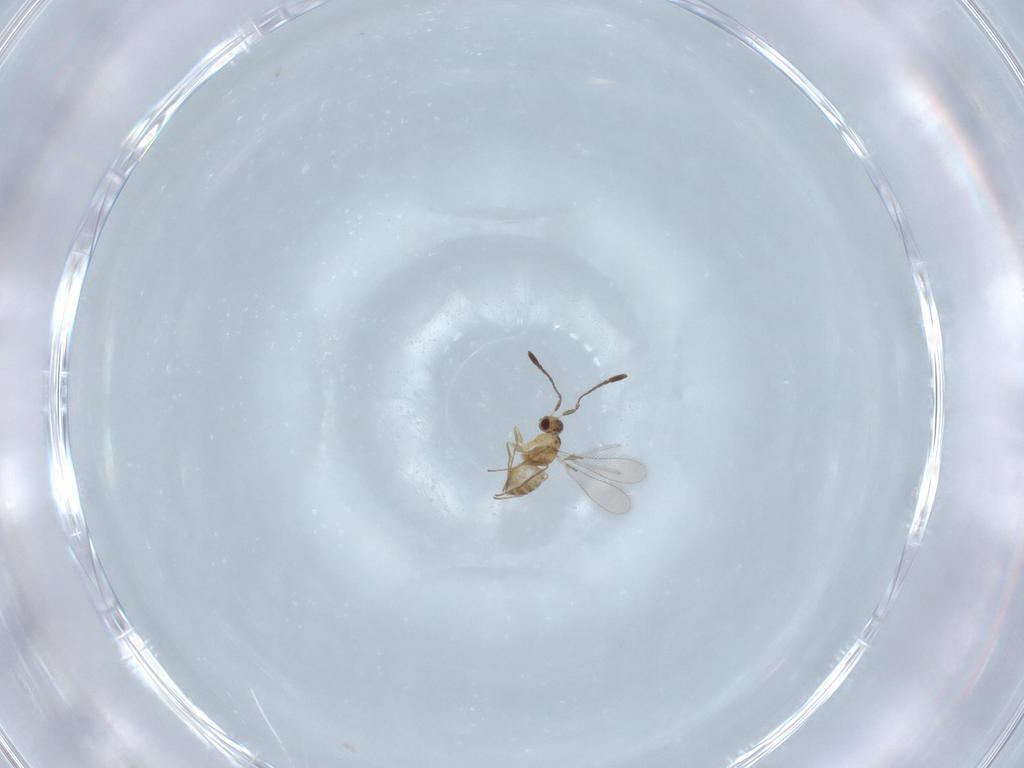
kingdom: Animalia
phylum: Arthropoda
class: Insecta
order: Hymenoptera
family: Mymaridae
